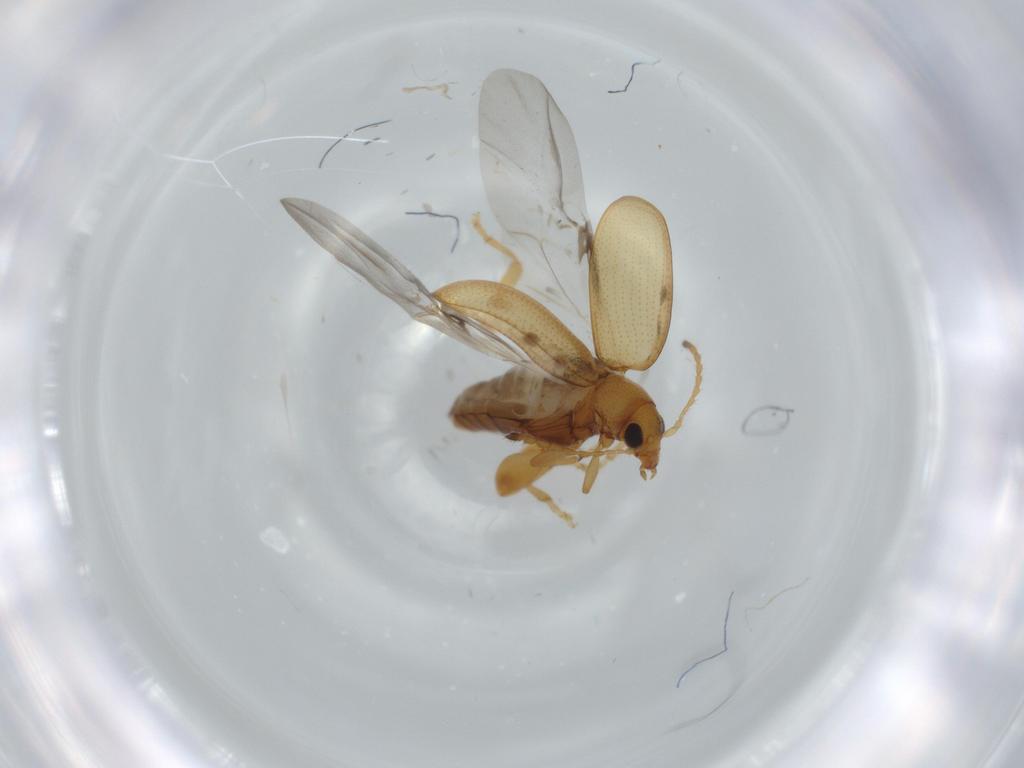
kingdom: Animalia
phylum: Arthropoda
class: Insecta
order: Coleoptera
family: Chrysomelidae
